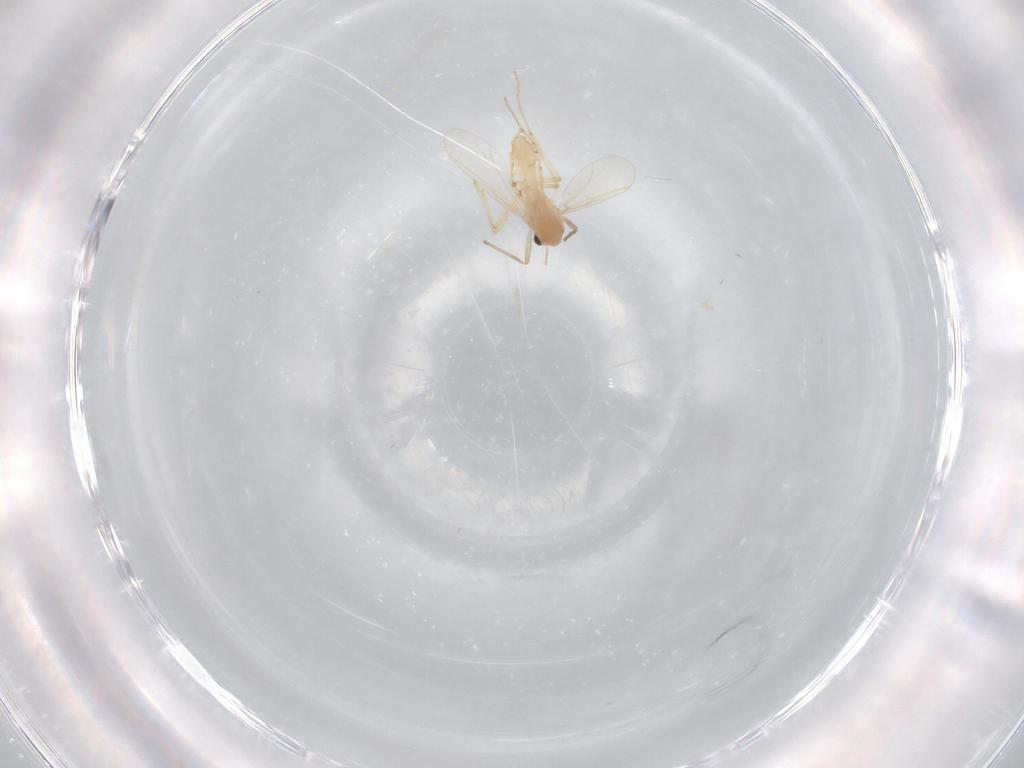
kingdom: Animalia
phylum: Arthropoda
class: Insecta
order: Diptera
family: Chironomidae
